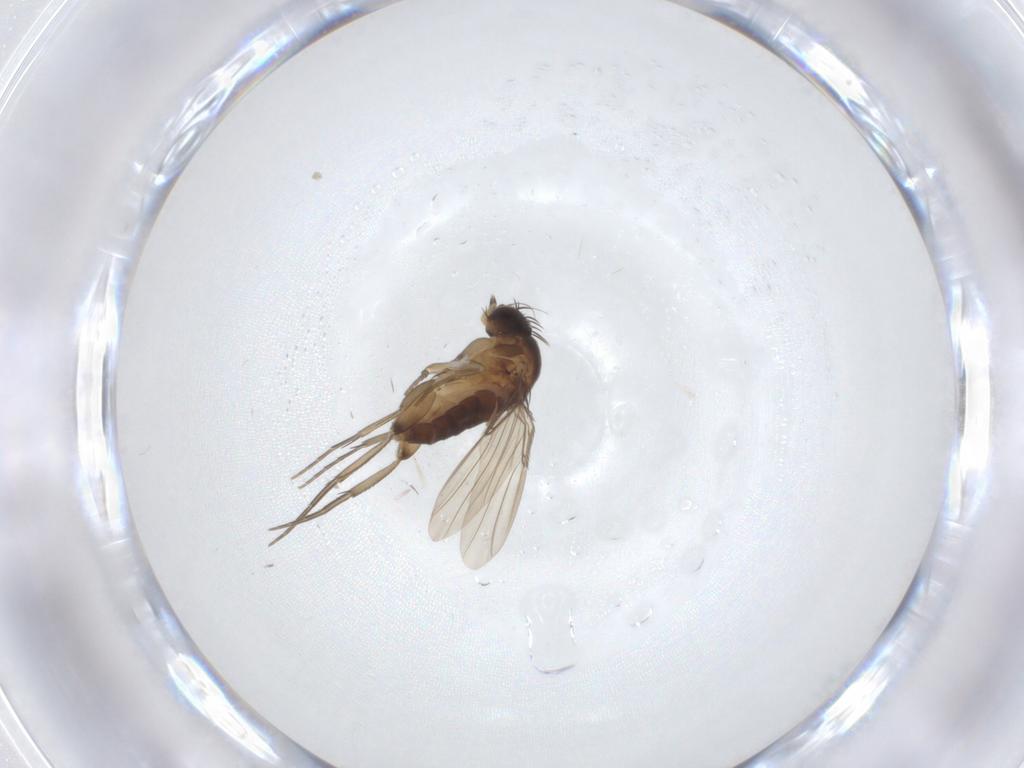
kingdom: Animalia
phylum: Arthropoda
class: Insecta
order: Diptera
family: Phoridae
